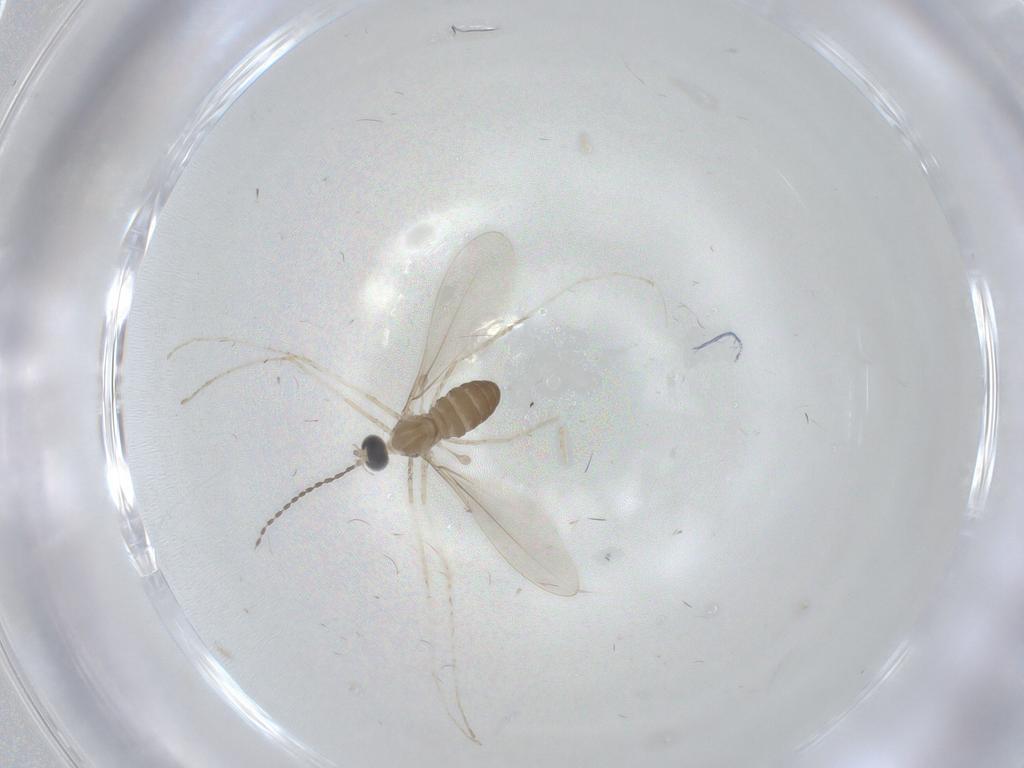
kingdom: Animalia
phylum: Arthropoda
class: Insecta
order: Diptera
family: Cecidomyiidae
